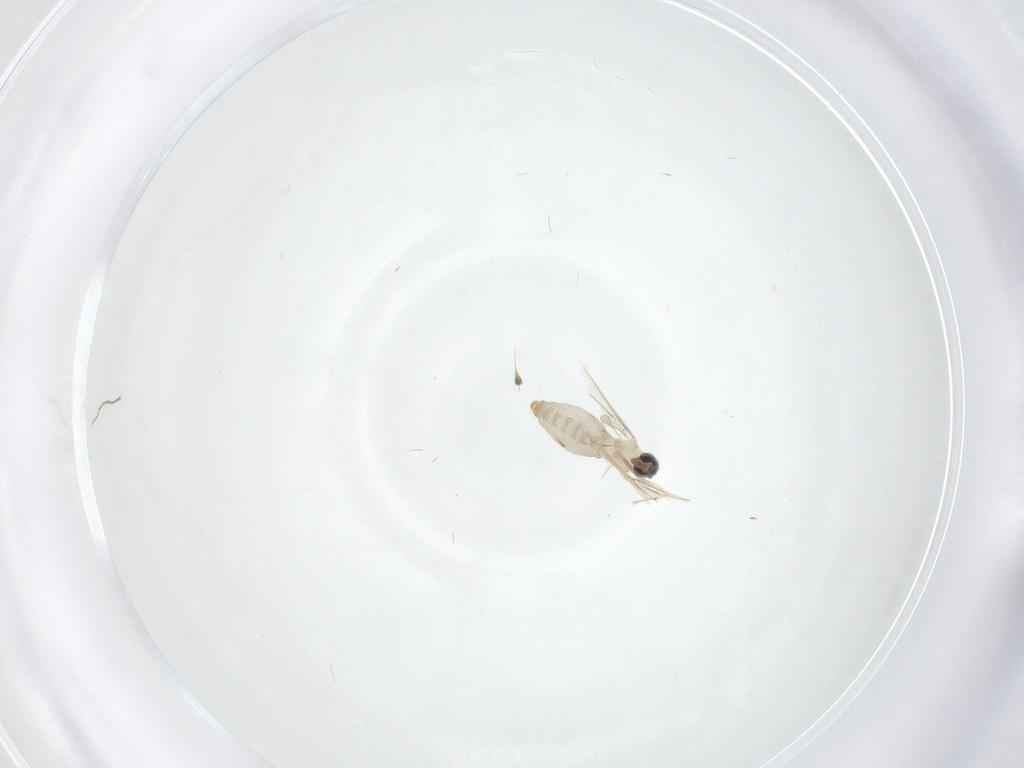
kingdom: Animalia
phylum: Arthropoda
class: Insecta
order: Diptera
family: Cecidomyiidae
